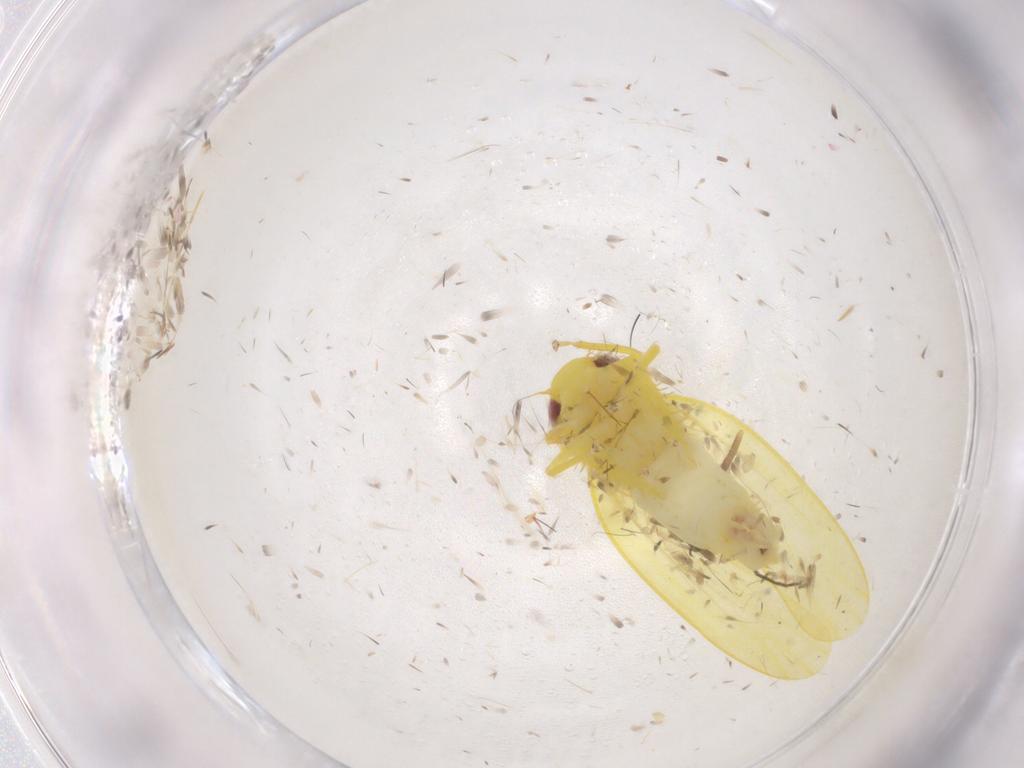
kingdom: Animalia
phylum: Arthropoda
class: Insecta
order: Hemiptera
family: Cicadellidae
